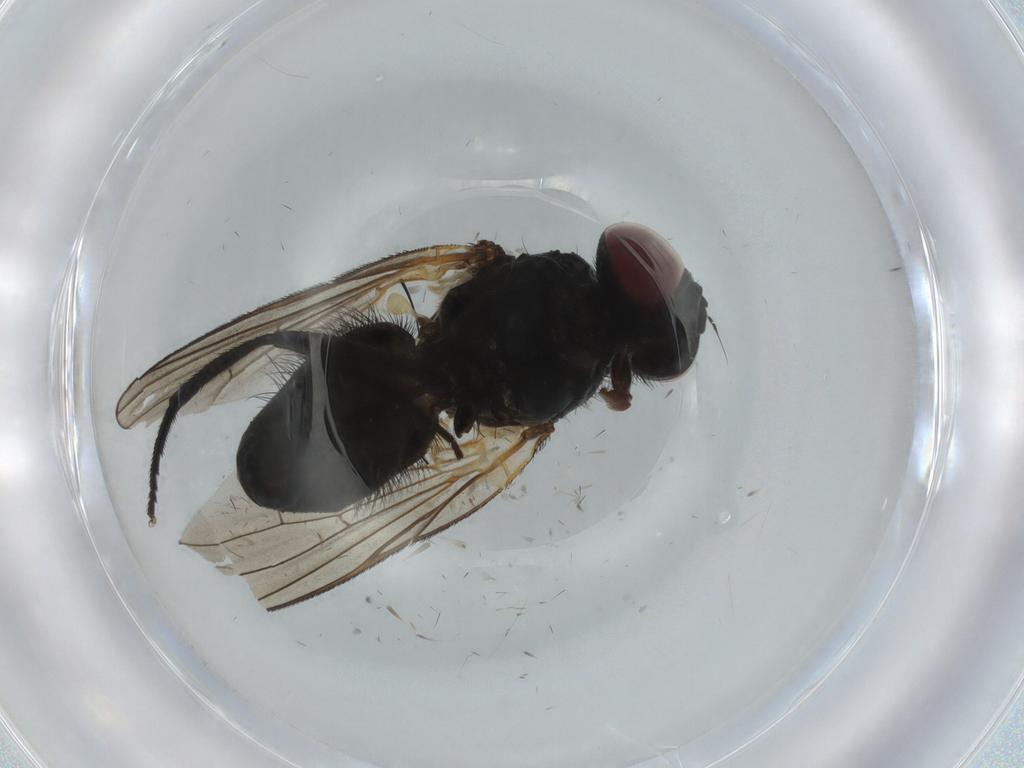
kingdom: Animalia
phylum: Arthropoda
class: Insecta
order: Diptera
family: Fannia
